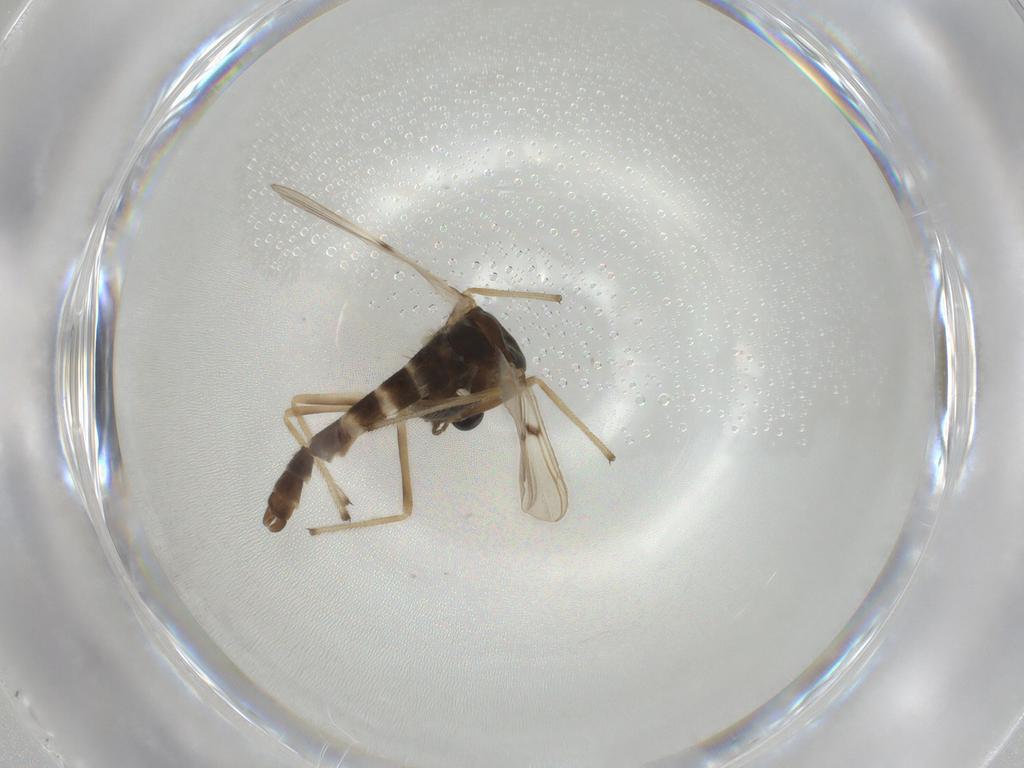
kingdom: Animalia
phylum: Arthropoda
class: Insecta
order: Diptera
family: Chironomidae
